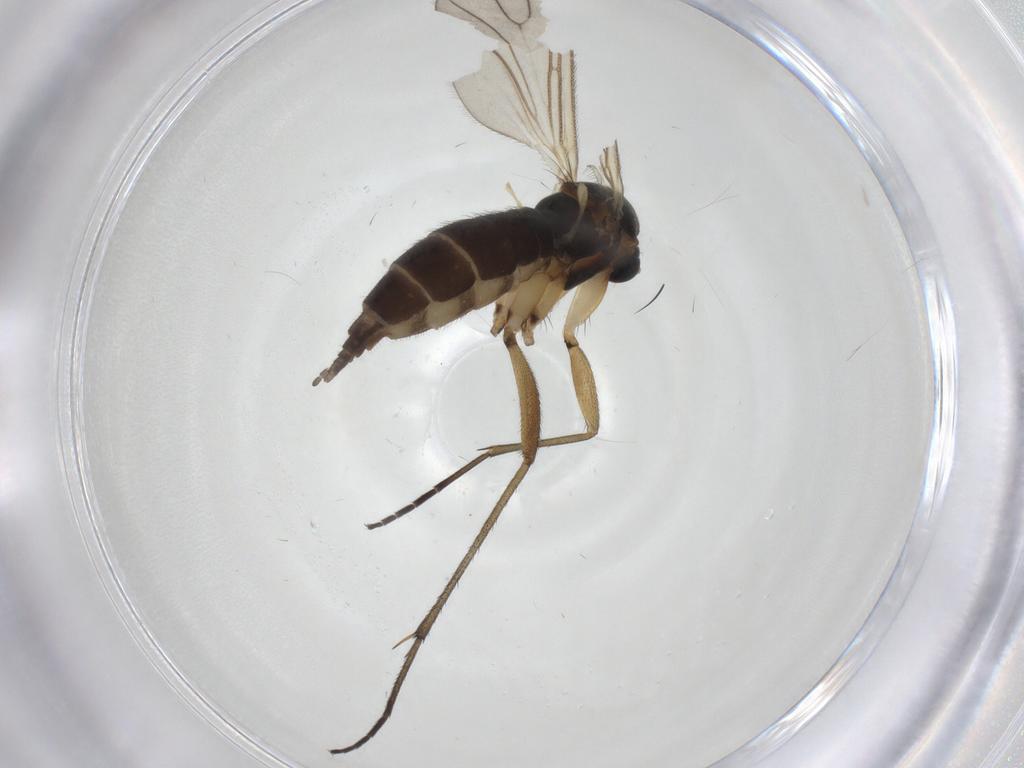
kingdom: Animalia
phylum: Arthropoda
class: Insecta
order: Diptera
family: Sciaridae
